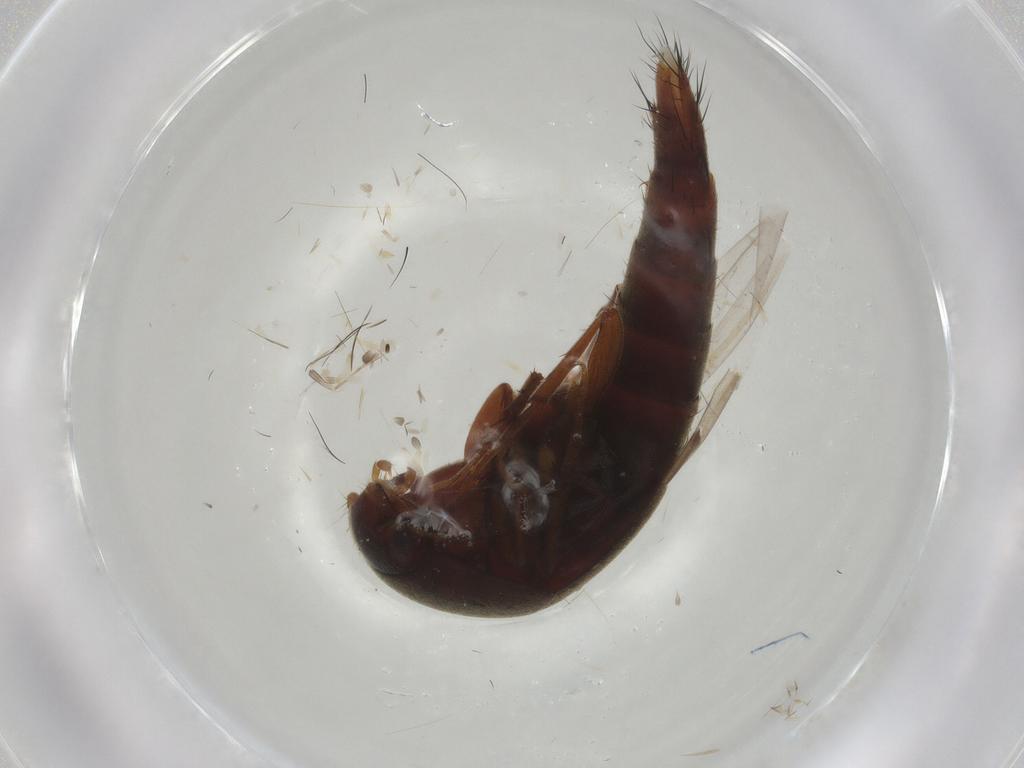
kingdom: Animalia
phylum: Arthropoda
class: Insecta
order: Coleoptera
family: Staphylinidae
